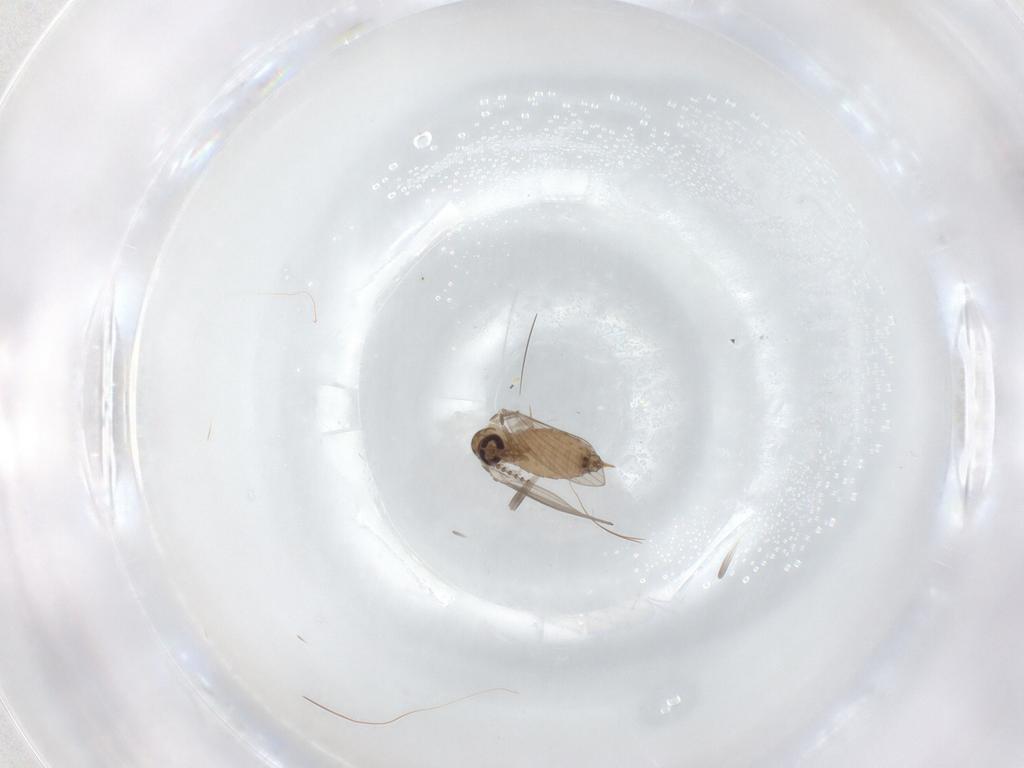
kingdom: Animalia
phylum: Arthropoda
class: Insecta
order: Diptera
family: Psychodidae
